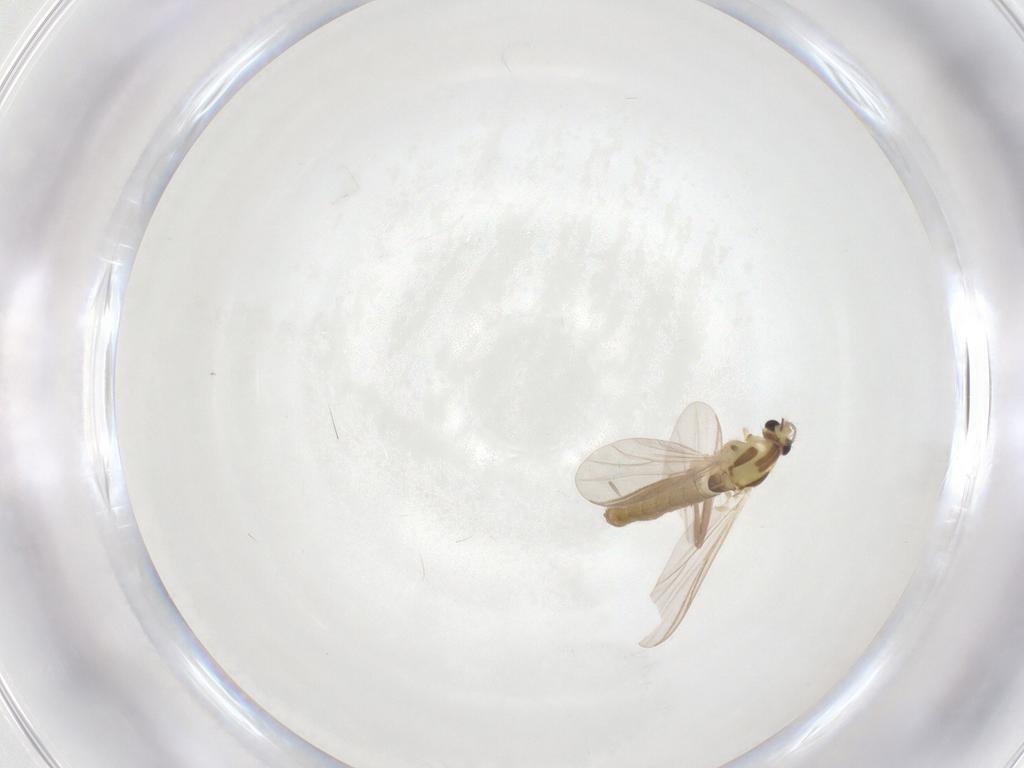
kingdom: Animalia
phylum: Arthropoda
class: Insecta
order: Diptera
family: Chironomidae
